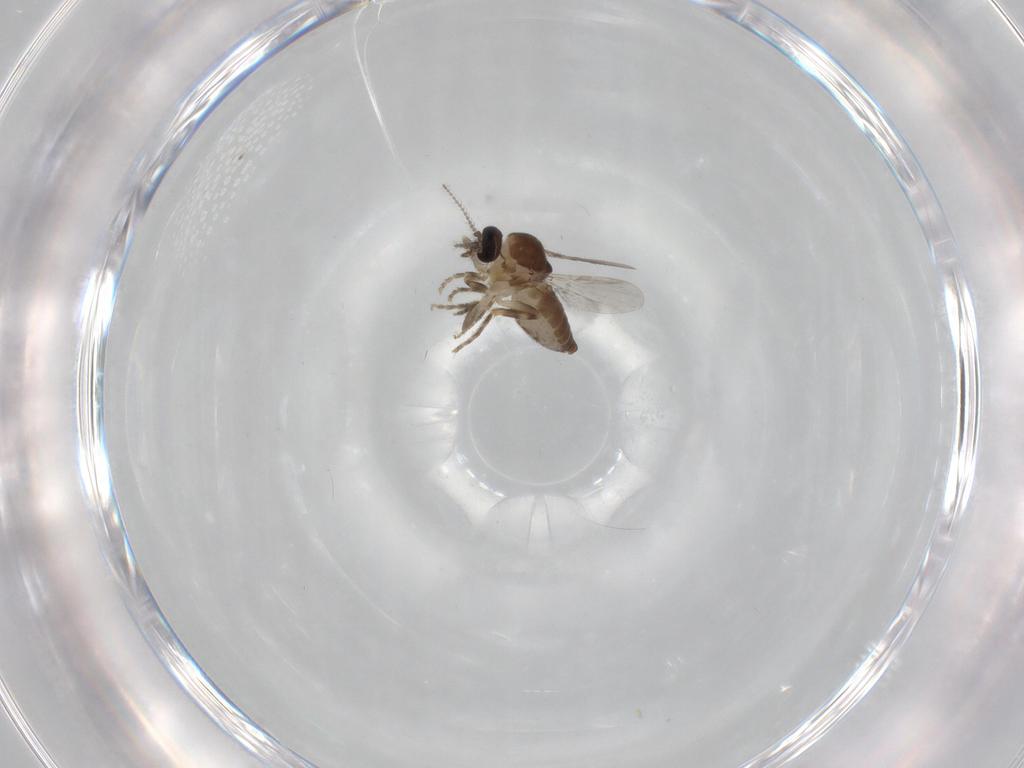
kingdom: Animalia
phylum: Arthropoda
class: Insecta
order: Diptera
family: Ceratopogonidae
